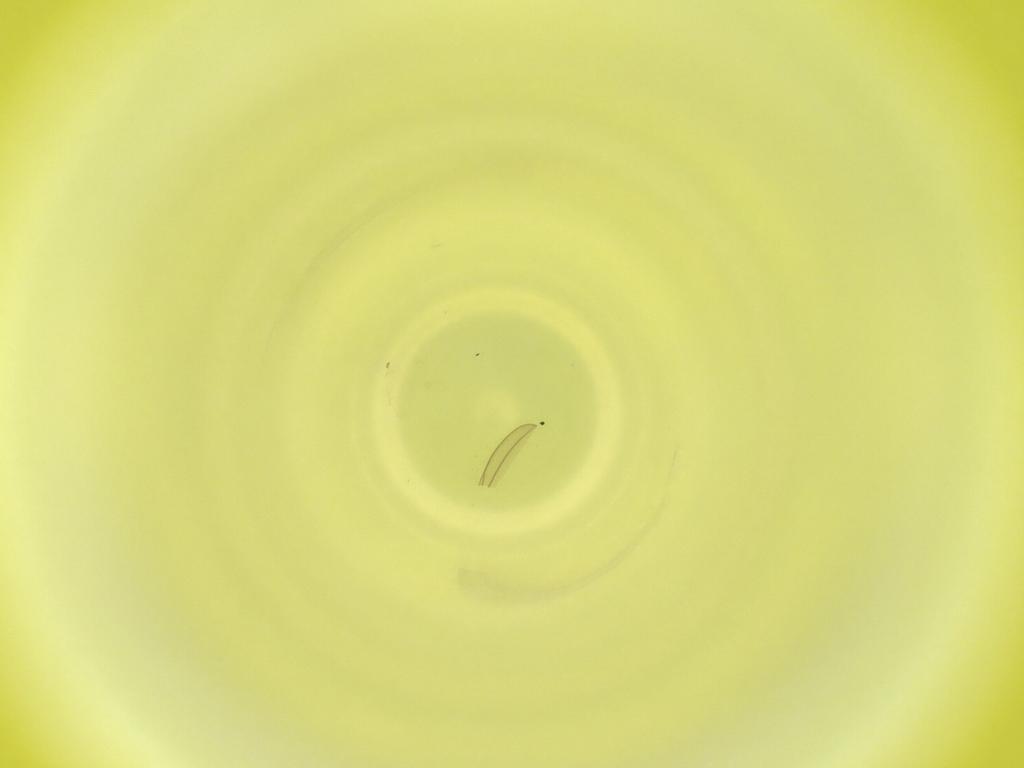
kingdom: Animalia
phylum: Arthropoda
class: Insecta
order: Diptera
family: Cecidomyiidae
